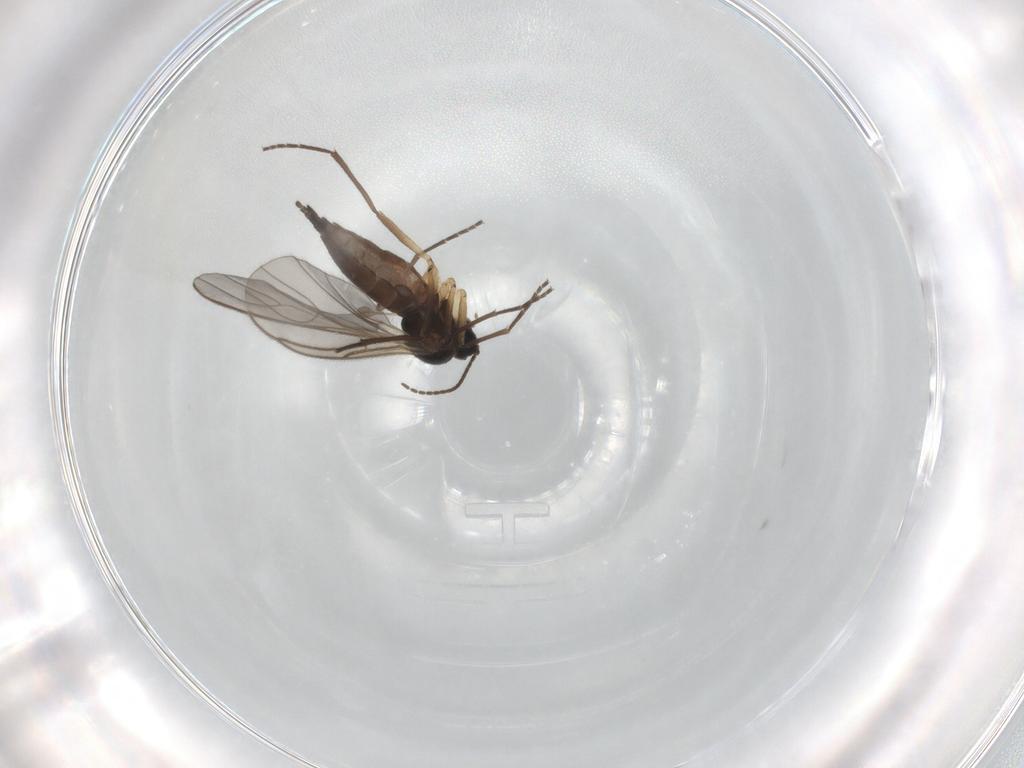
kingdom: Animalia
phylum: Arthropoda
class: Insecta
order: Diptera
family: Sciaridae
